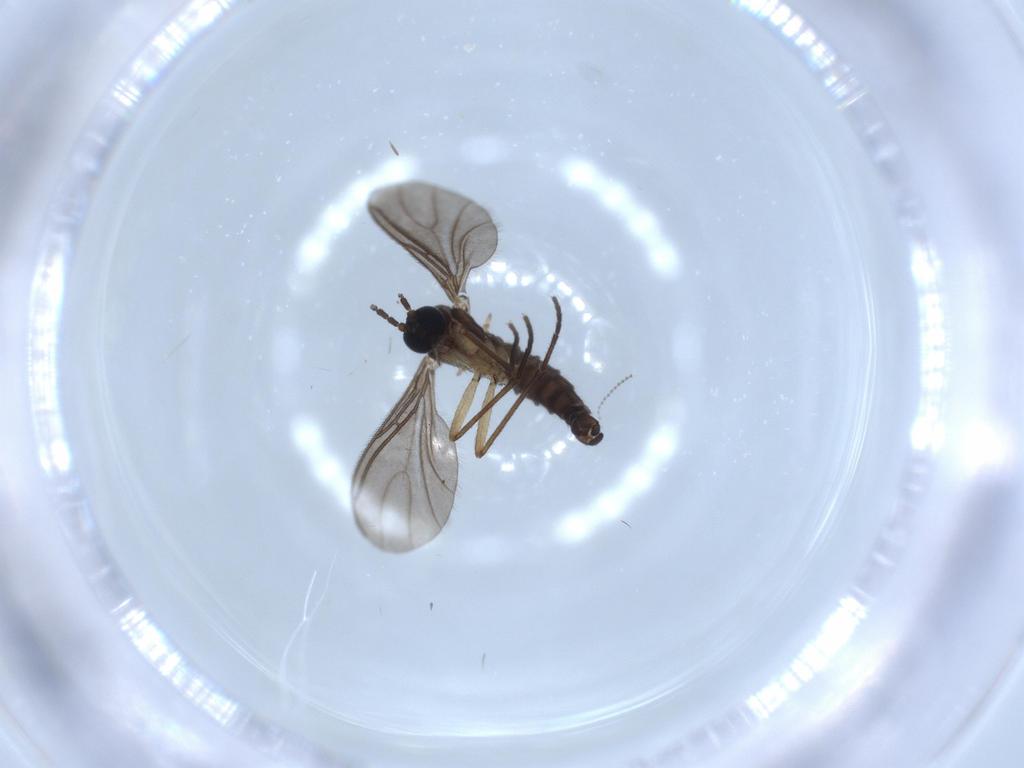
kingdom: Animalia
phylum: Arthropoda
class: Insecta
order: Diptera
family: Sciaridae
